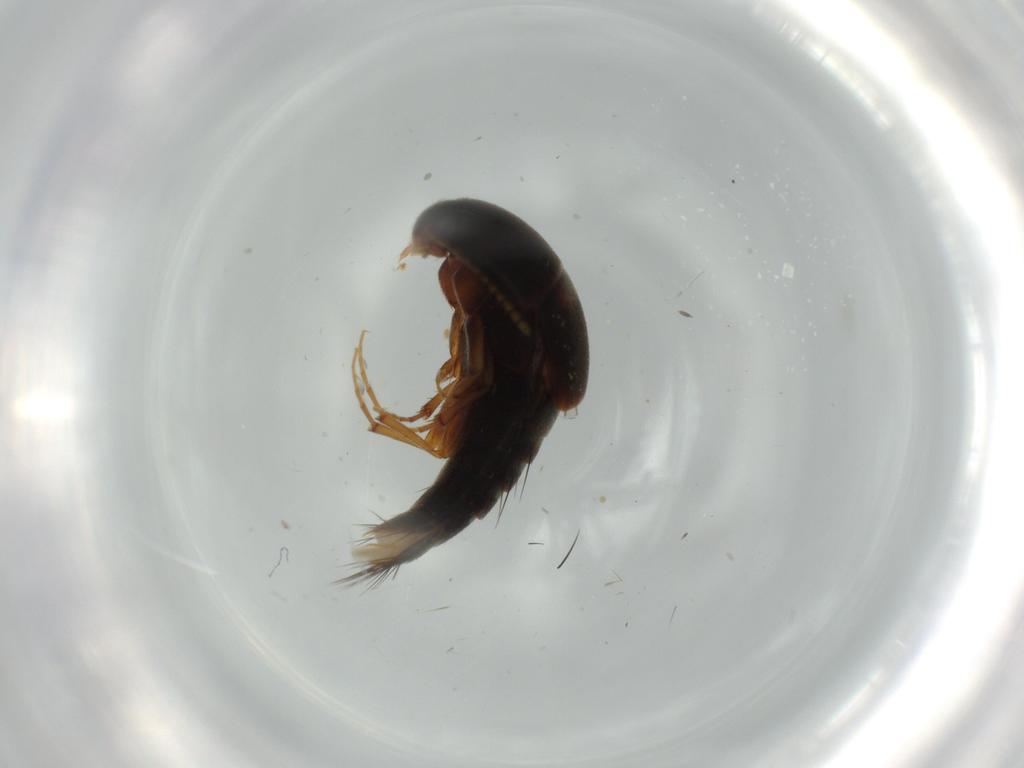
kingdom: Animalia
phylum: Arthropoda
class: Insecta
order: Coleoptera
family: Staphylinidae
